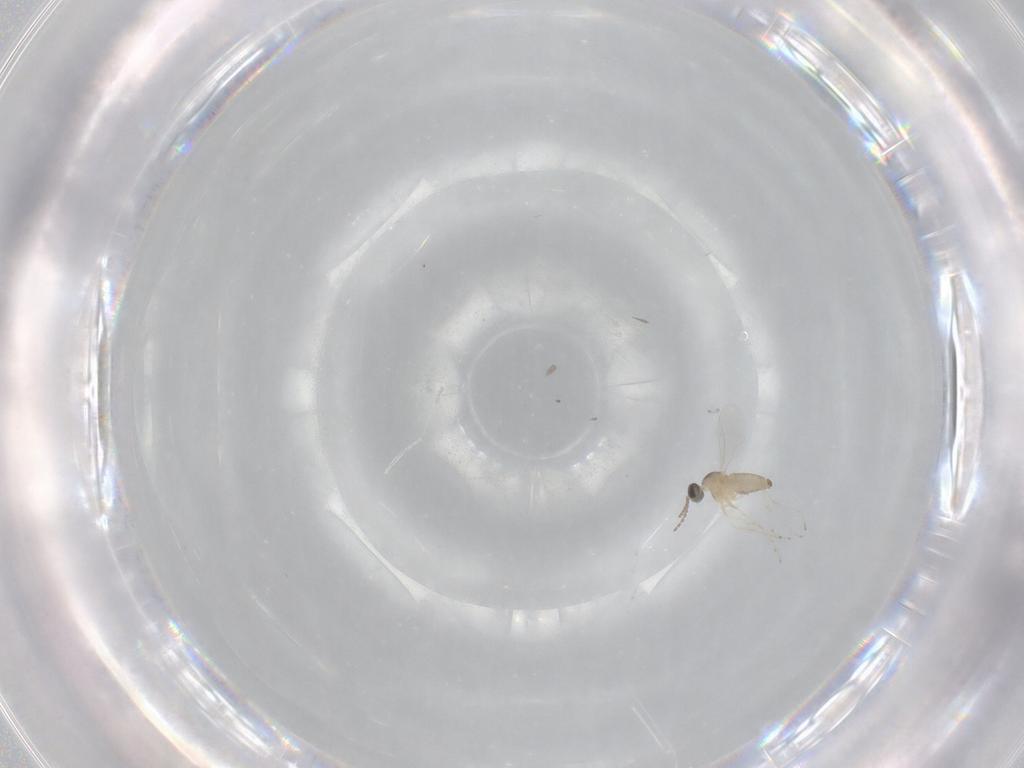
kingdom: Animalia
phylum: Arthropoda
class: Insecta
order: Diptera
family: Cecidomyiidae
